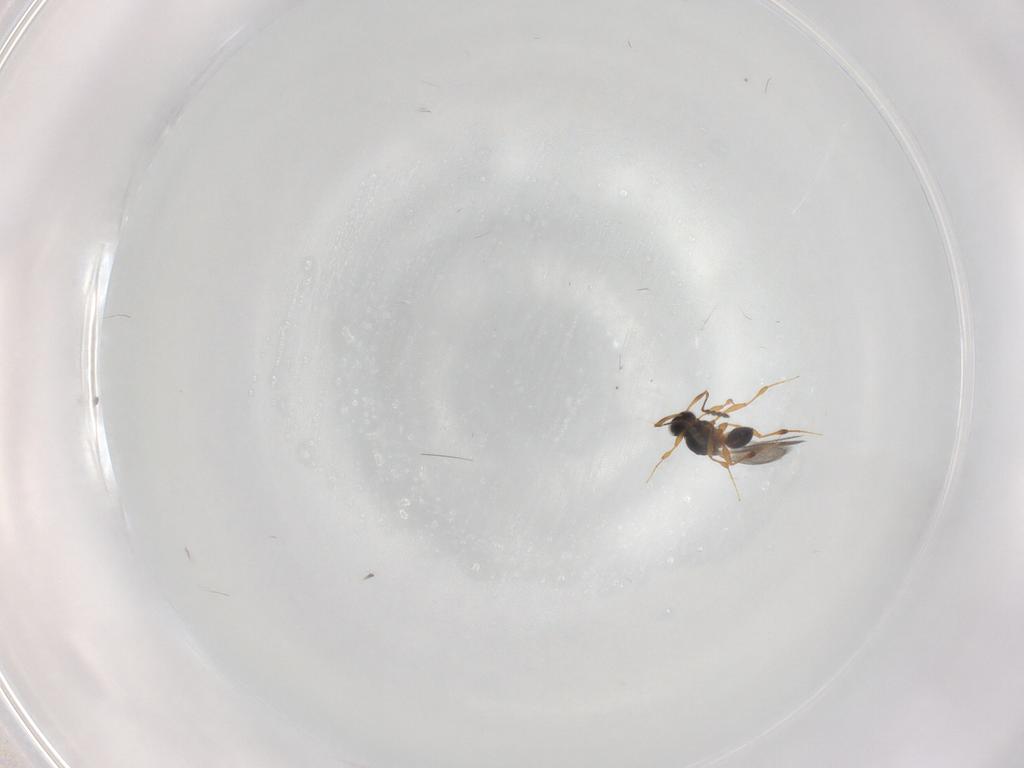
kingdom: Animalia
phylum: Arthropoda
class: Insecta
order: Hymenoptera
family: Platygastridae
